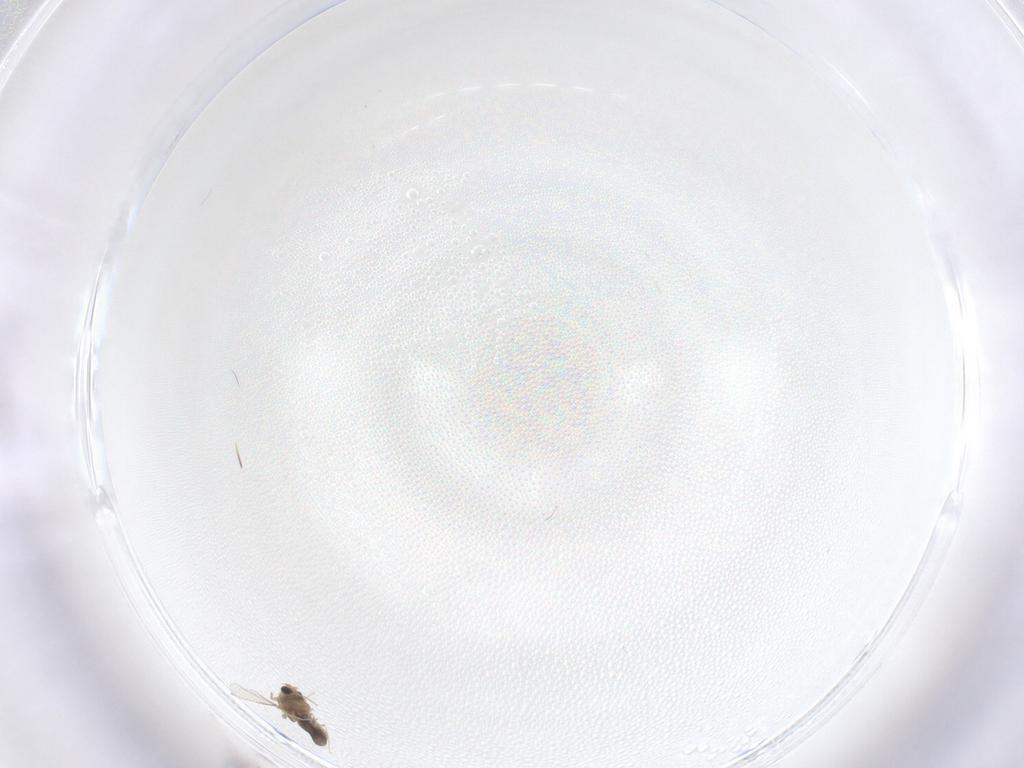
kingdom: Animalia
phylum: Arthropoda
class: Insecta
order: Diptera
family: Chironomidae
